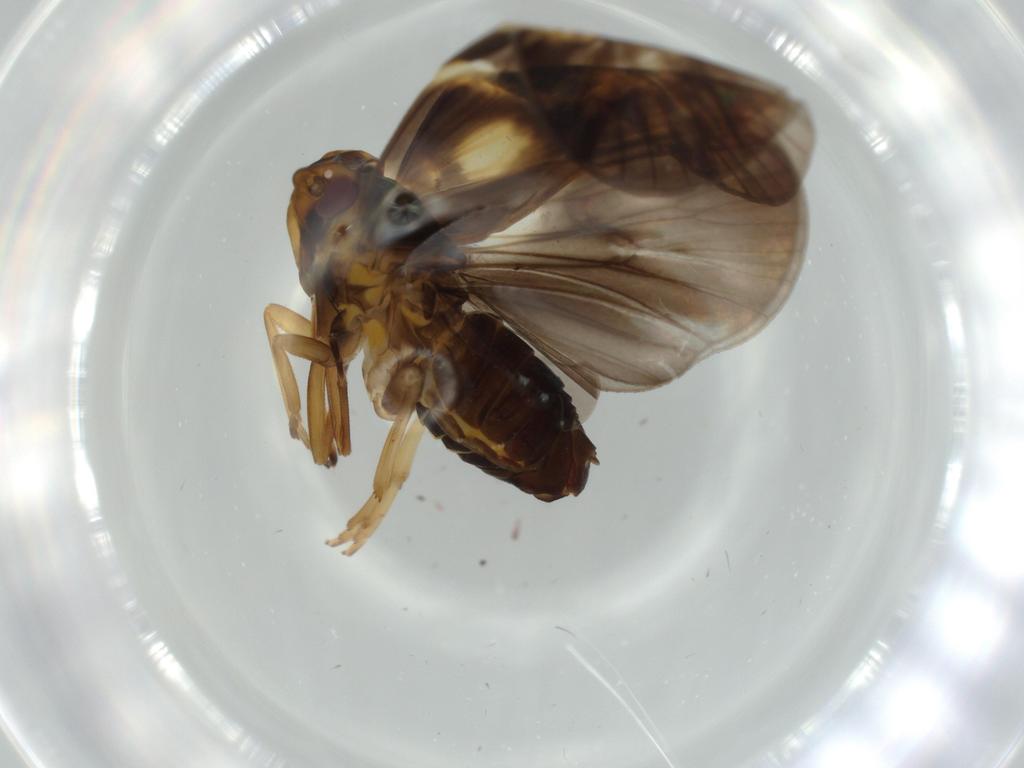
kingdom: Animalia
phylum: Arthropoda
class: Insecta
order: Hemiptera
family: Cixiidae
